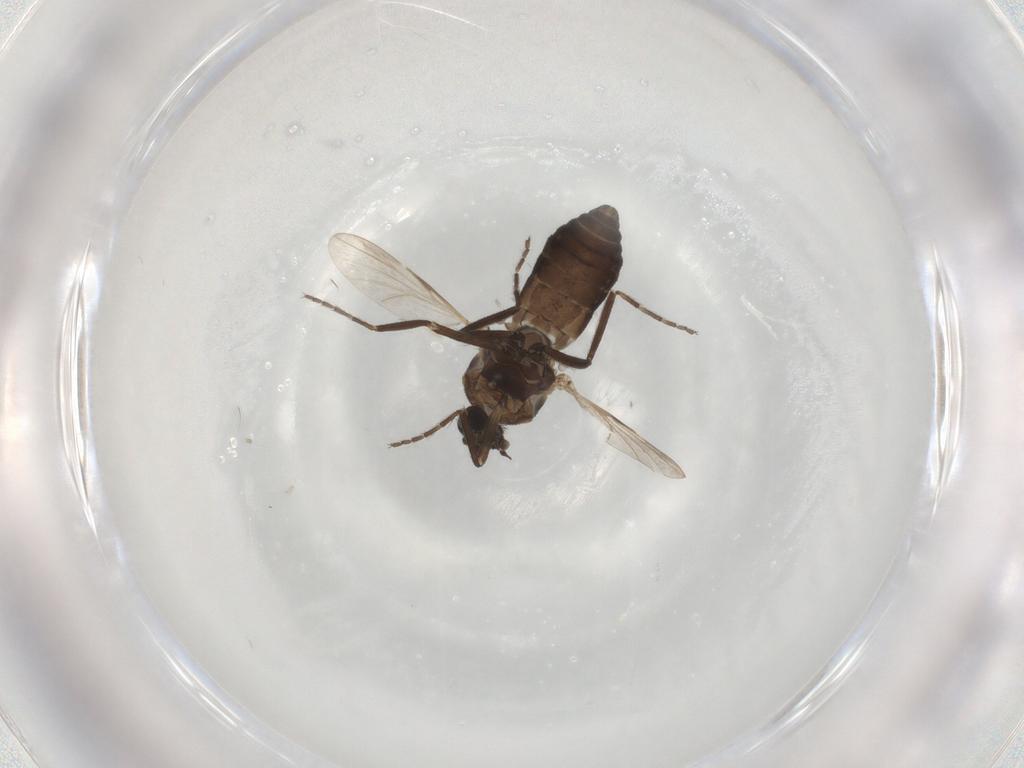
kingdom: Animalia
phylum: Arthropoda
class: Insecta
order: Diptera
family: Ceratopogonidae
